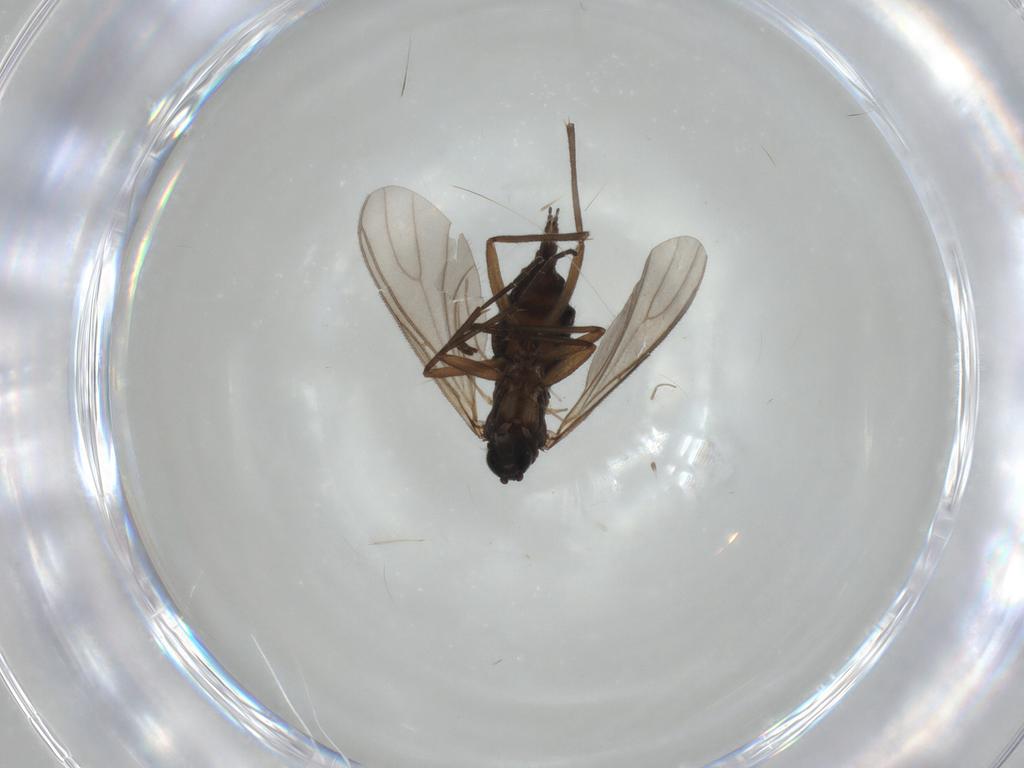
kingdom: Animalia
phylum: Arthropoda
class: Insecta
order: Diptera
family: Sciaridae
